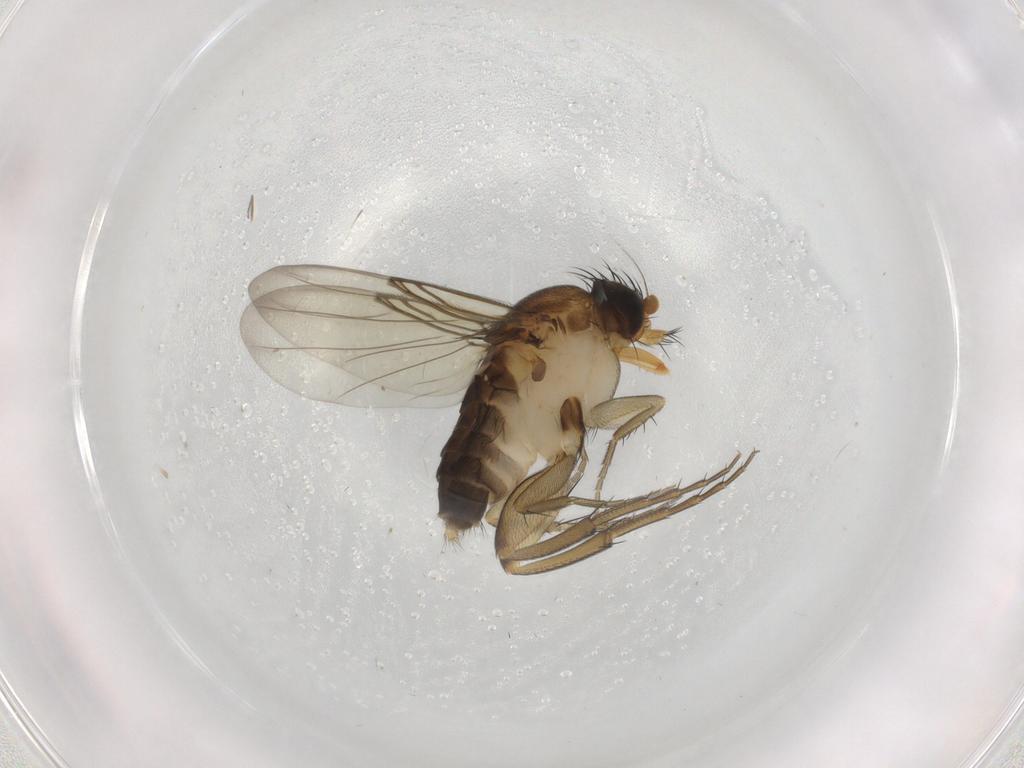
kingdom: Animalia
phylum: Arthropoda
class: Insecta
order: Diptera
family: Phoridae
